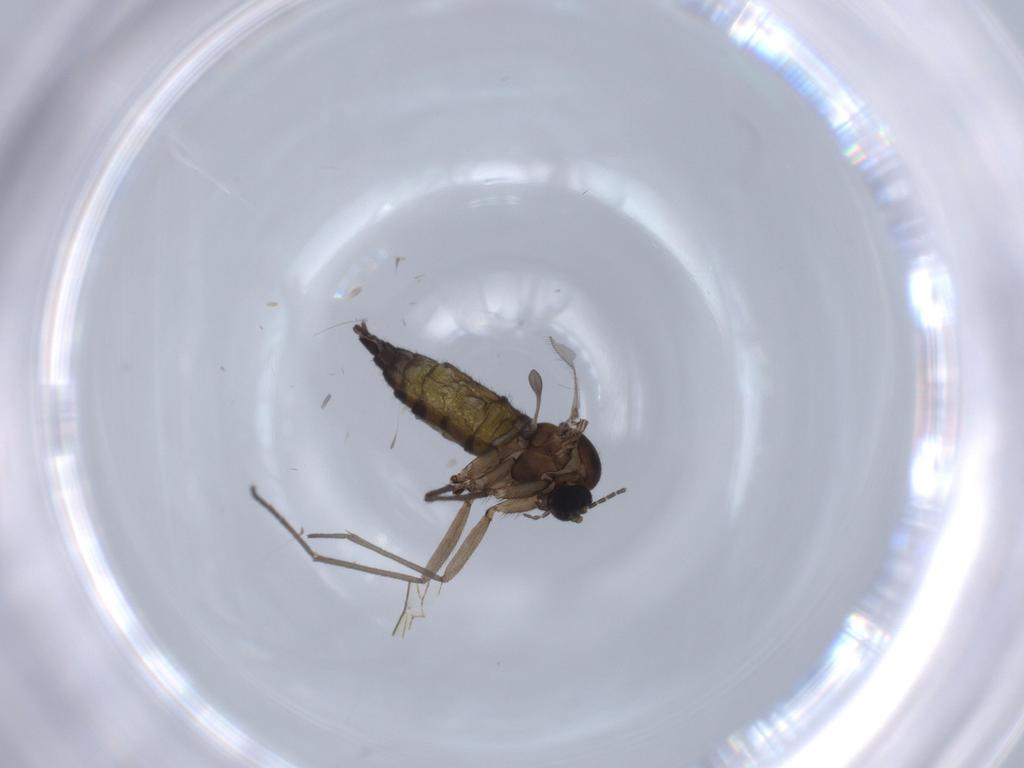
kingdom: Animalia
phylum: Arthropoda
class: Insecta
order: Diptera
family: Sciaridae
